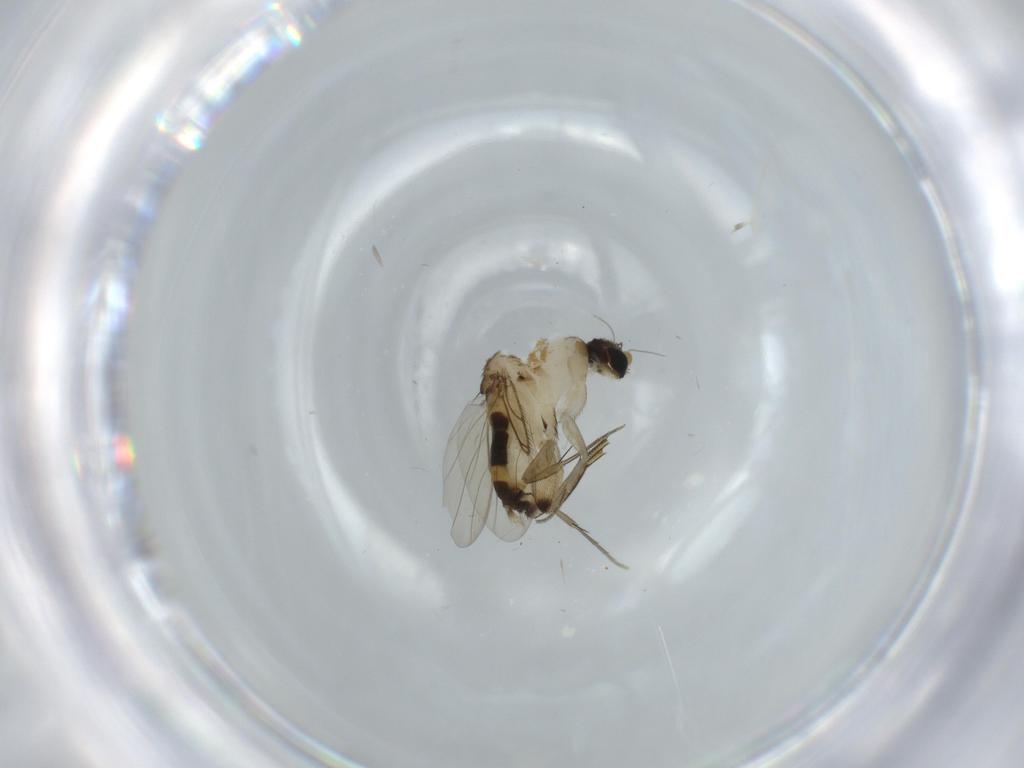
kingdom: Animalia
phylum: Arthropoda
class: Insecta
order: Diptera
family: Phoridae
